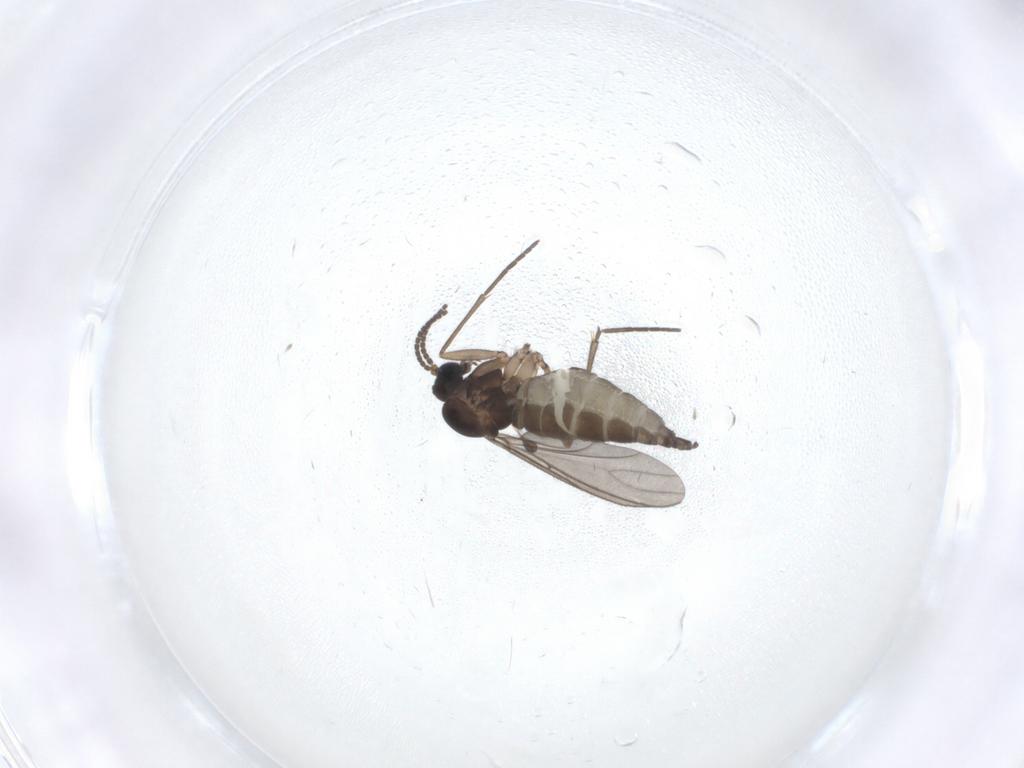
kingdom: Animalia
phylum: Arthropoda
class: Insecta
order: Diptera
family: Sciaridae
